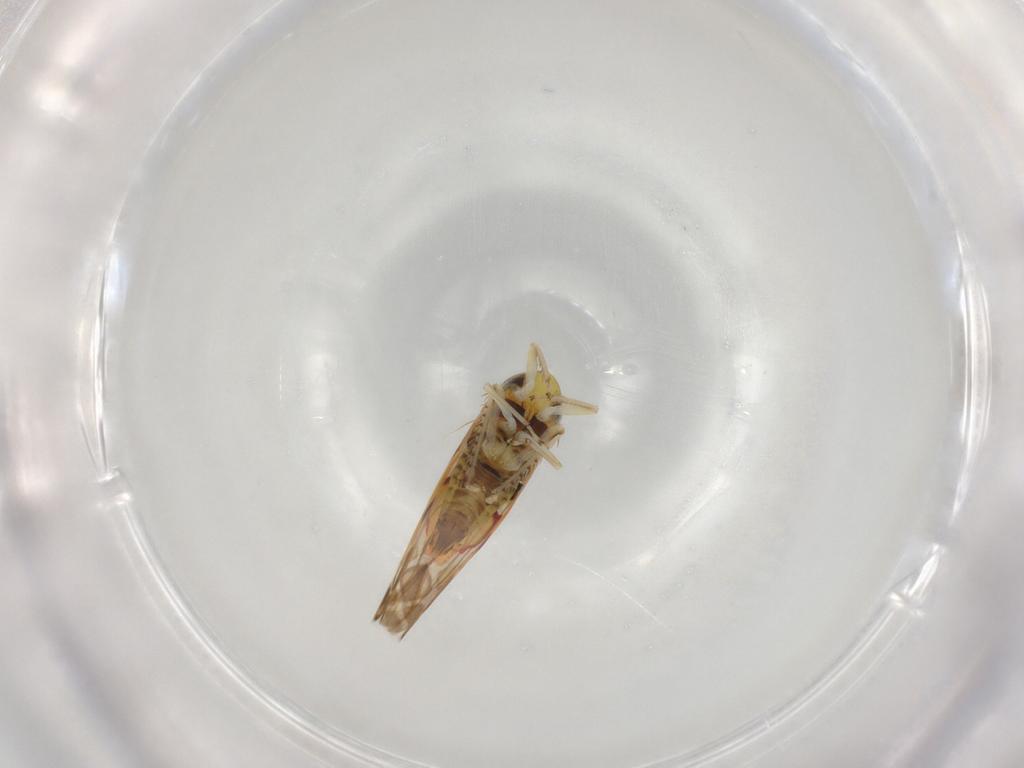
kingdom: Animalia
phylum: Arthropoda
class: Insecta
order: Hemiptera
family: Cicadellidae
